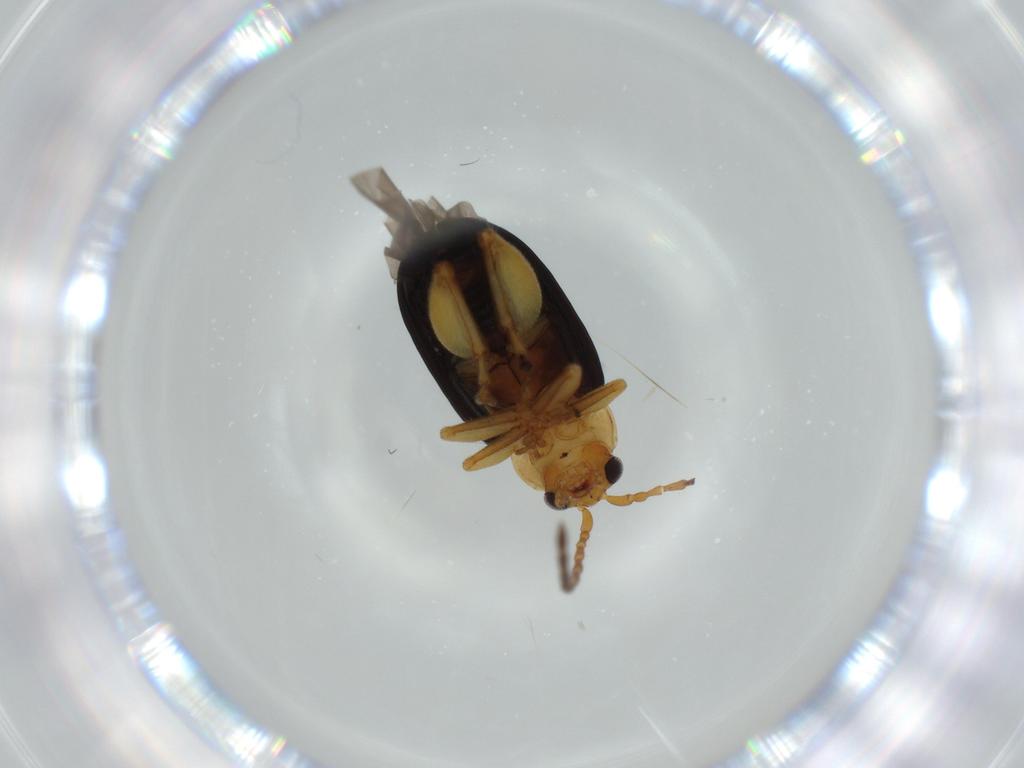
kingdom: Animalia
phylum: Arthropoda
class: Insecta
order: Coleoptera
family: Chrysomelidae
